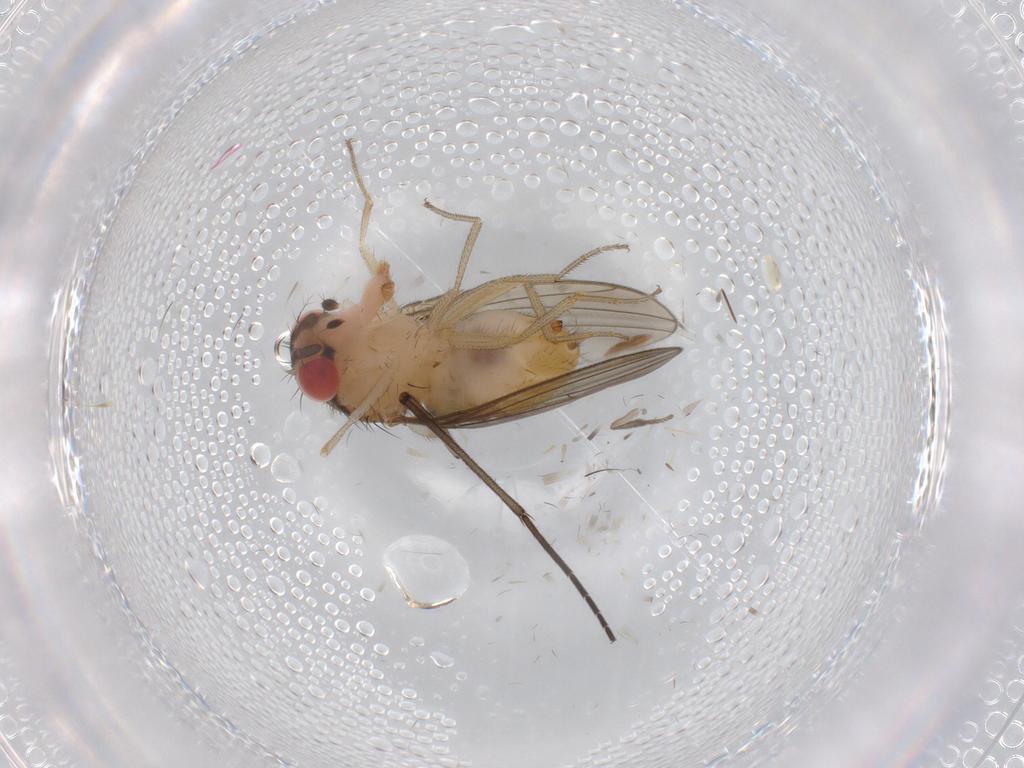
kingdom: Animalia
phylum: Arthropoda
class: Insecta
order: Diptera
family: Drosophilidae
